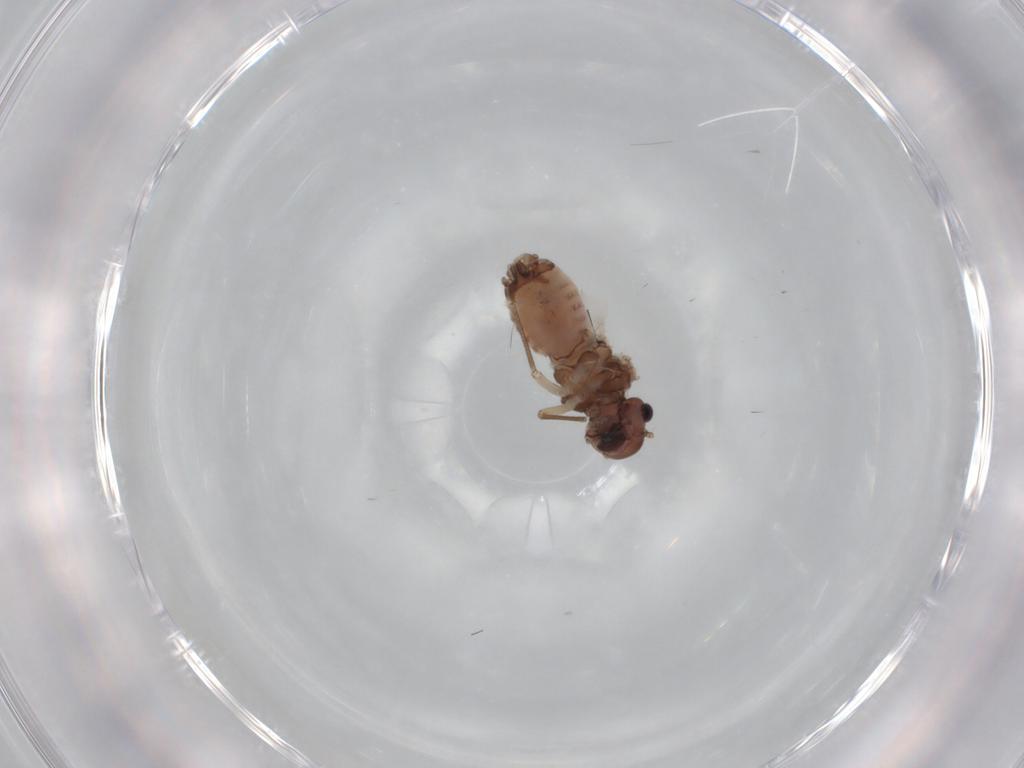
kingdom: Animalia
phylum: Arthropoda
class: Insecta
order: Psocodea
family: Peripsocidae
